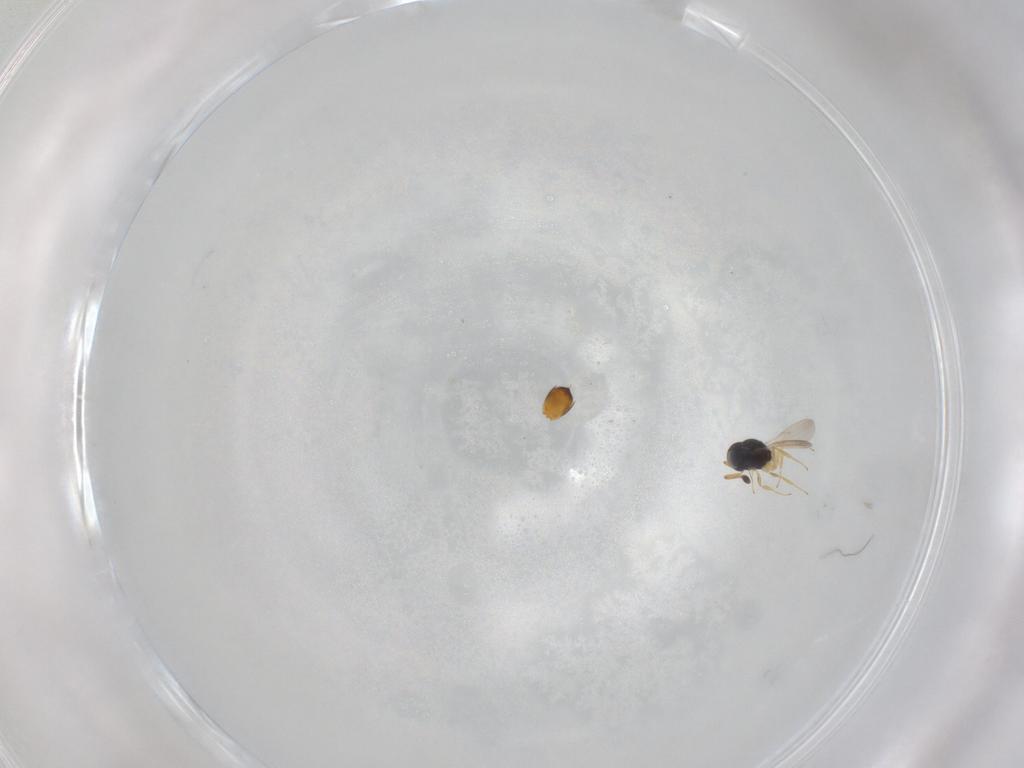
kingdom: Animalia
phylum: Arthropoda
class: Insecta
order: Hymenoptera
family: Scelionidae
